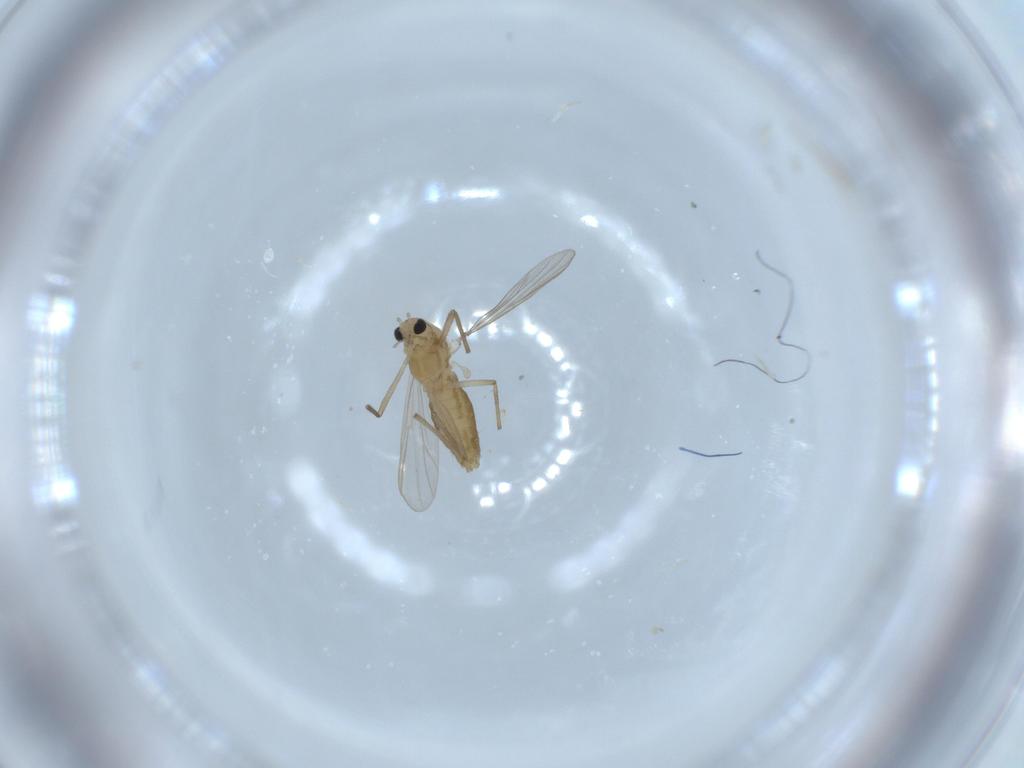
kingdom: Animalia
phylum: Arthropoda
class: Insecta
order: Diptera
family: Chironomidae
